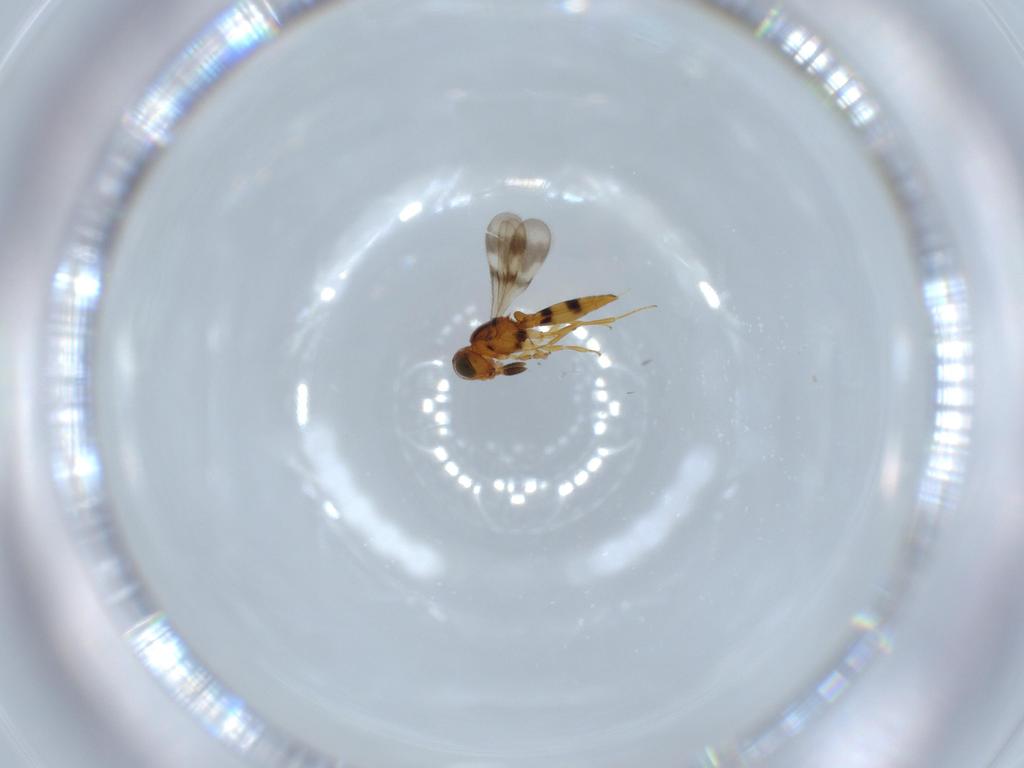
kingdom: Animalia
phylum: Arthropoda
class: Insecta
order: Hymenoptera
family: Scelionidae
